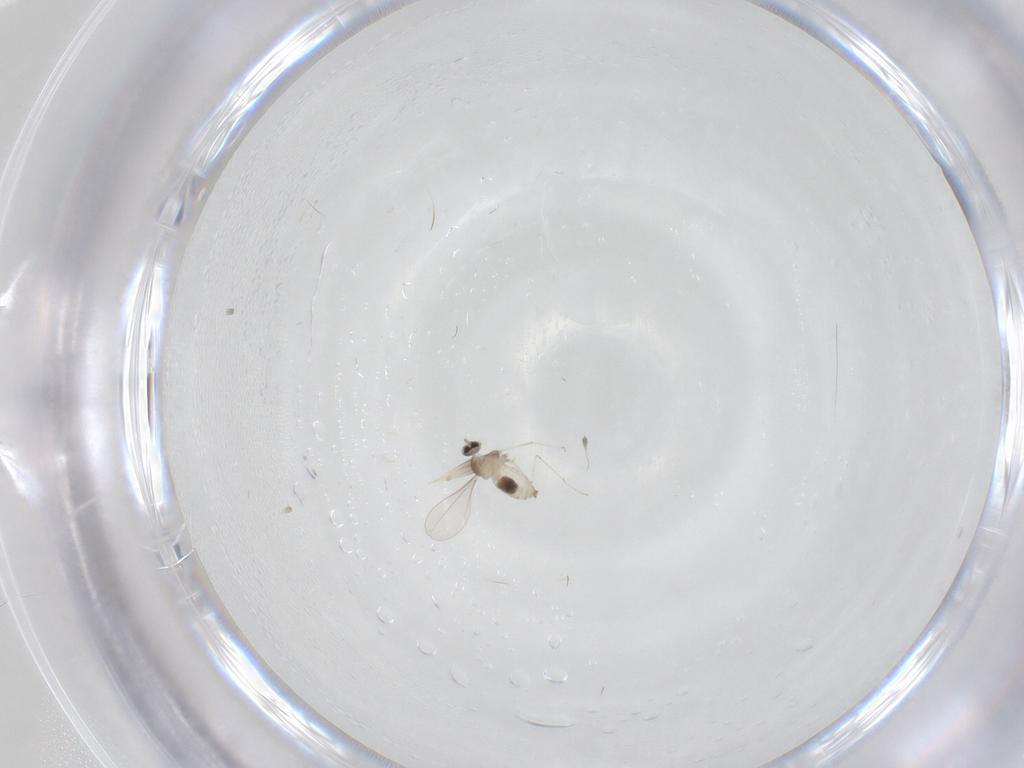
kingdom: Animalia
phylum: Arthropoda
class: Insecta
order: Diptera
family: Cecidomyiidae
